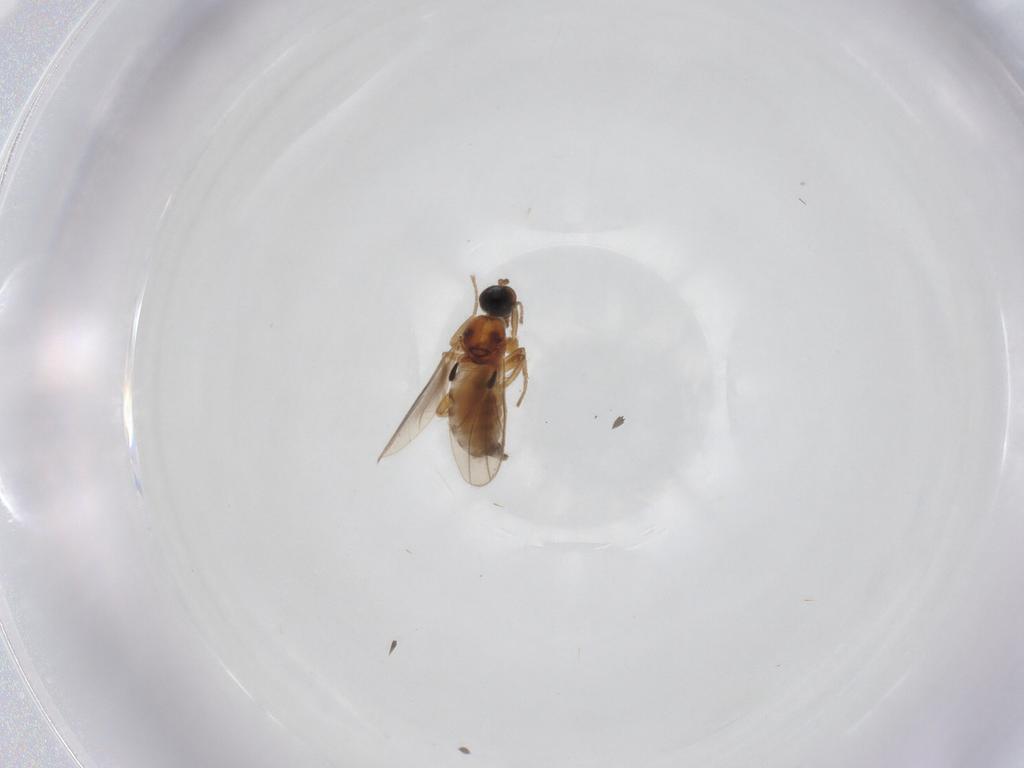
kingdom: Animalia
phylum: Arthropoda
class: Insecta
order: Diptera
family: Hybotidae
